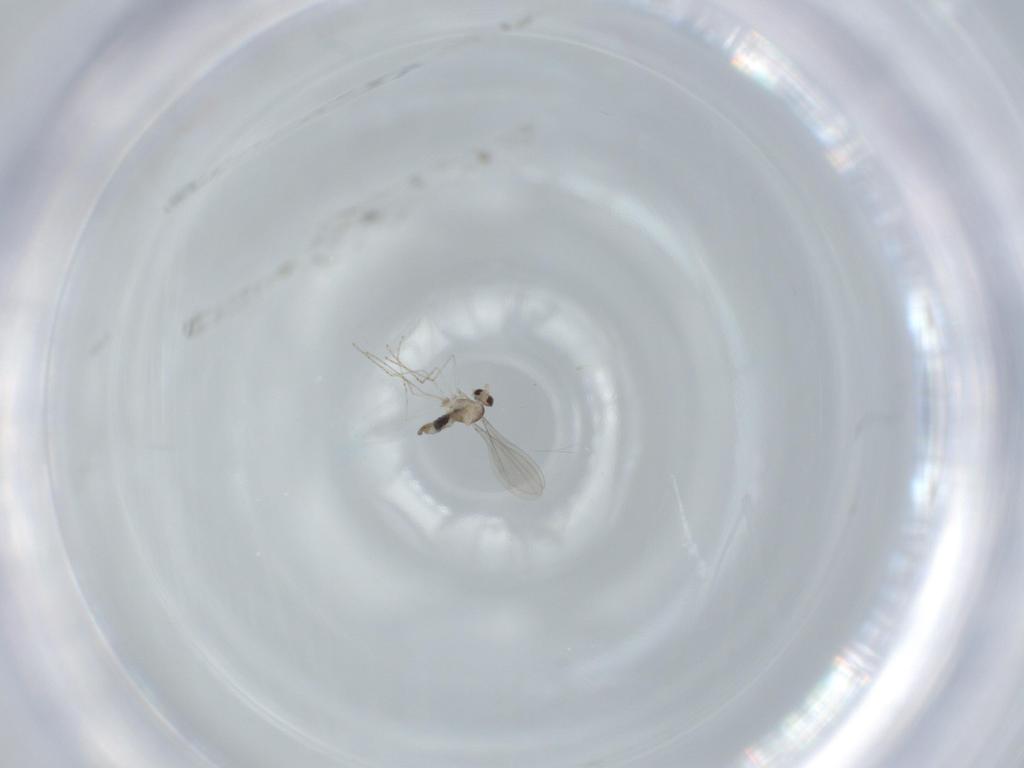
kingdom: Animalia
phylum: Arthropoda
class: Insecta
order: Diptera
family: Cecidomyiidae
